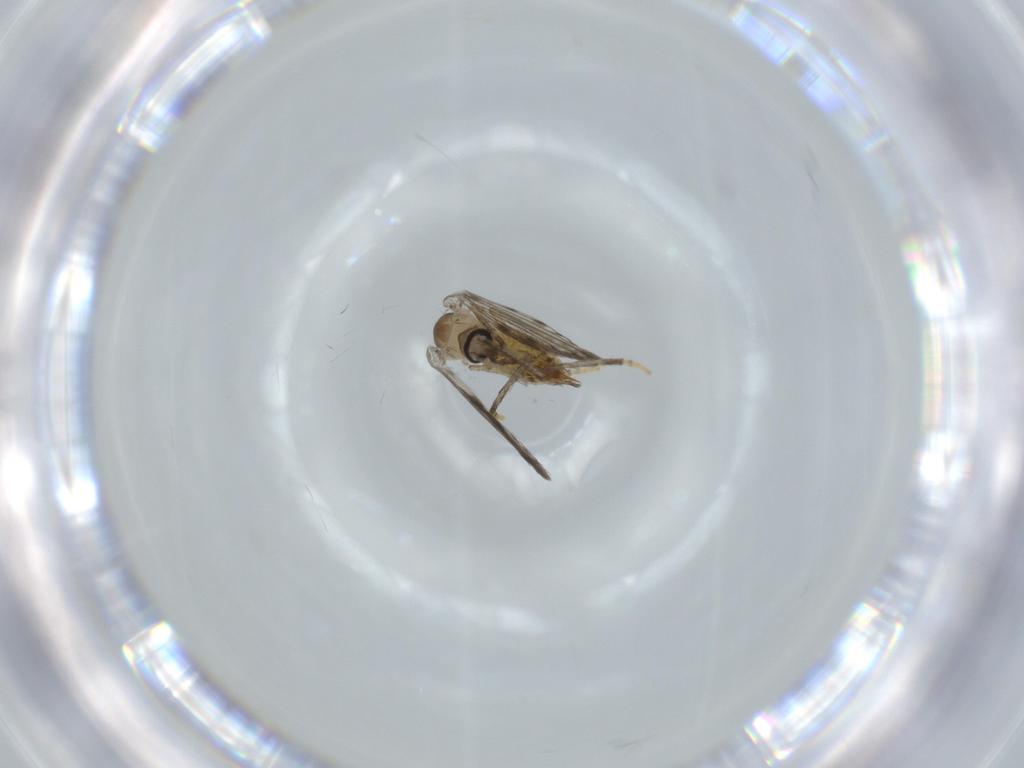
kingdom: Animalia
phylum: Arthropoda
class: Insecta
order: Diptera
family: Psychodidae
